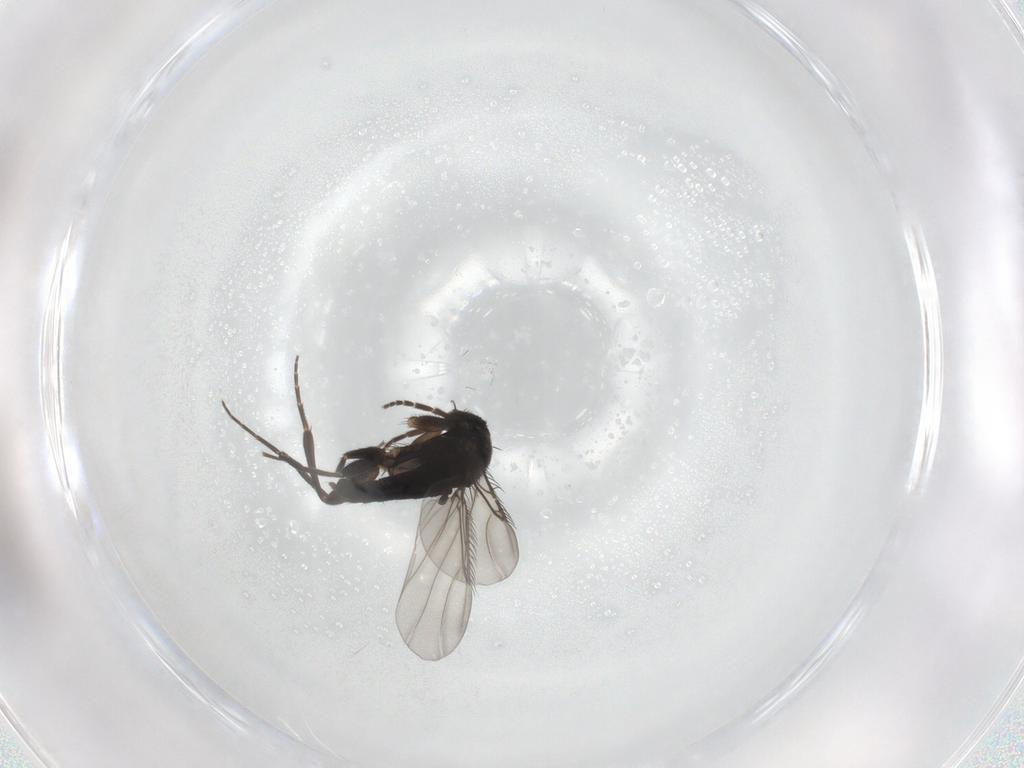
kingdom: Animalia
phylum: Arthropoda
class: Insecta
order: Diptera
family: Phoridae
